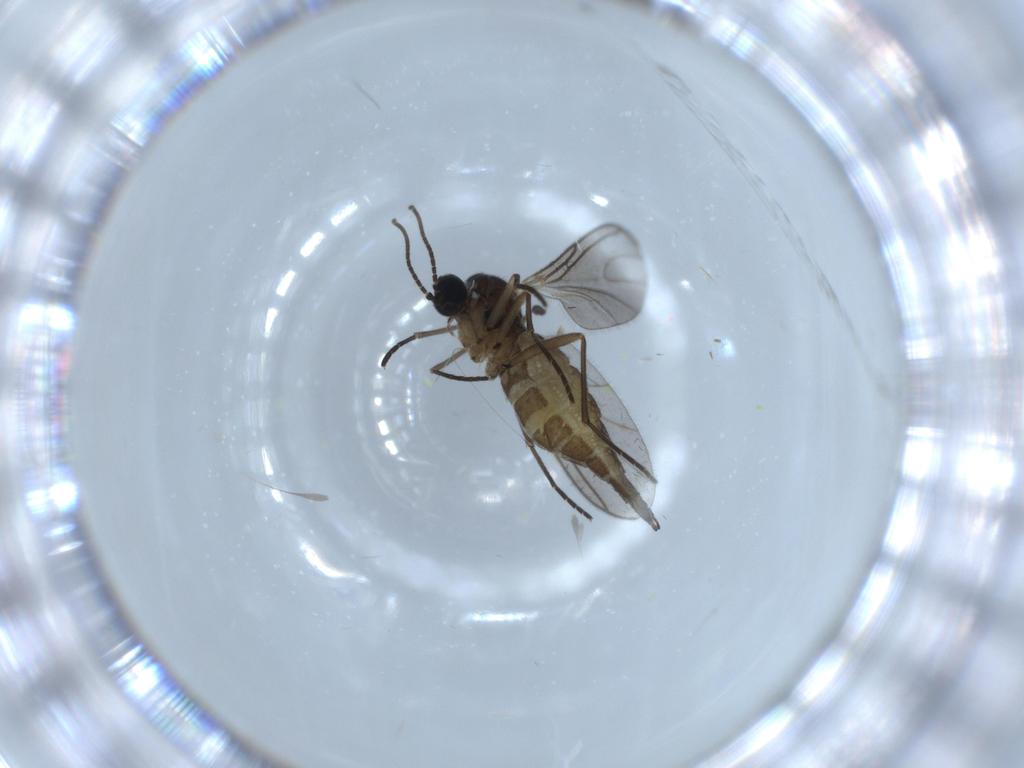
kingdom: Animalia
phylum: Arthropoda
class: Insecta
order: Diptera
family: Sciaridae
